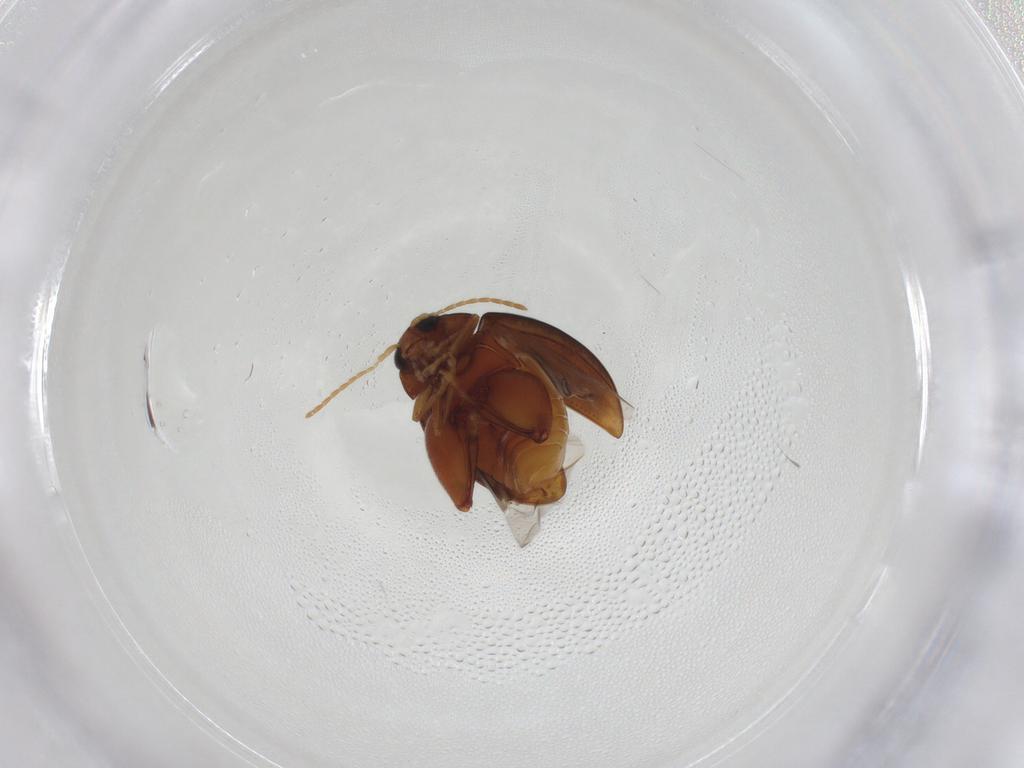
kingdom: Animalia
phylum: Arthropoda
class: Insecta
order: Coleoptera
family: Chrysomelidae
